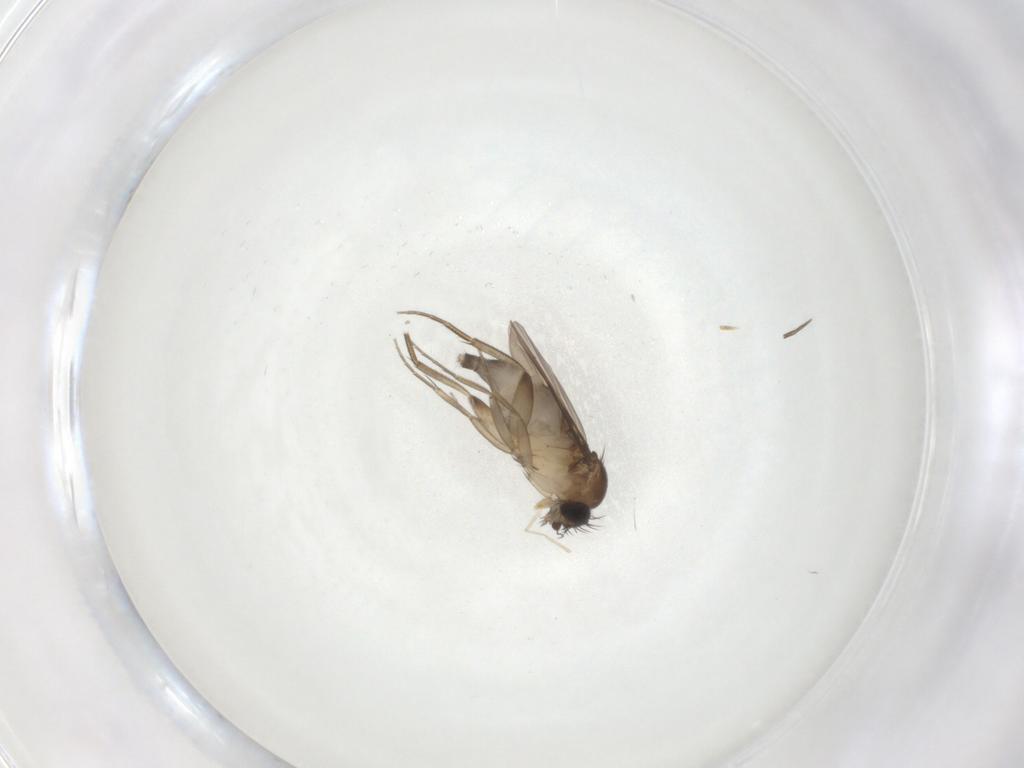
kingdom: Animalia
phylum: Arthropoda
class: Insecta
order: Diptera
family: Phoridae
